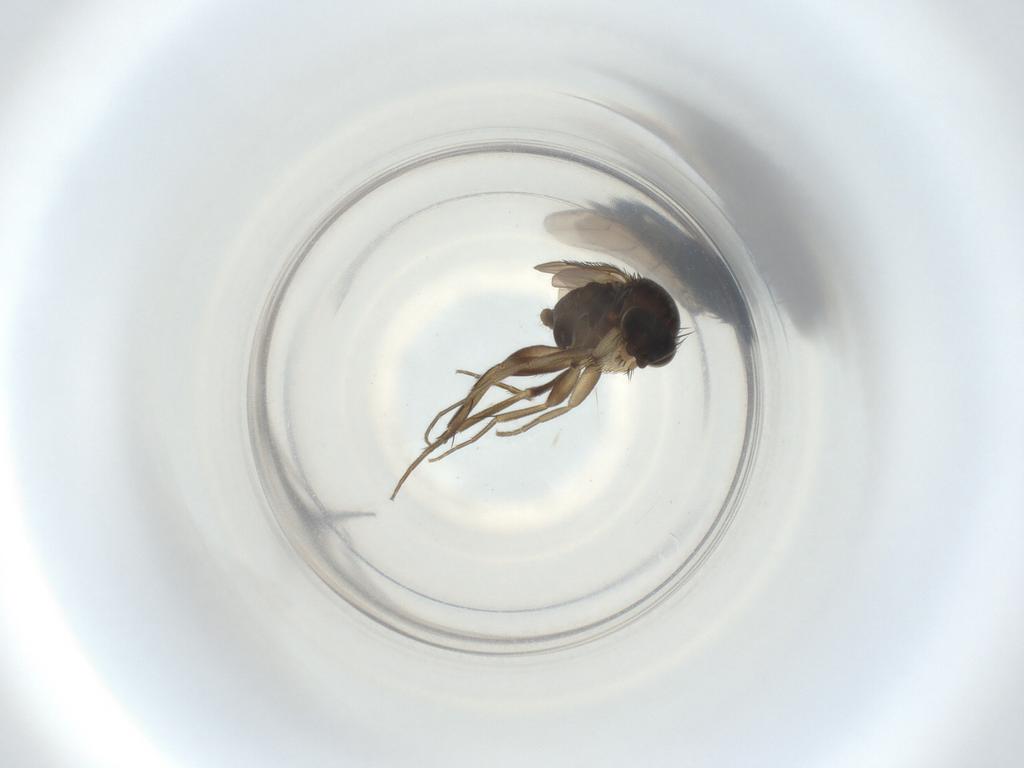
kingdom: Animalia
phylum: Arthropoda
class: Insecta
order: Diptera
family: Phoridae
